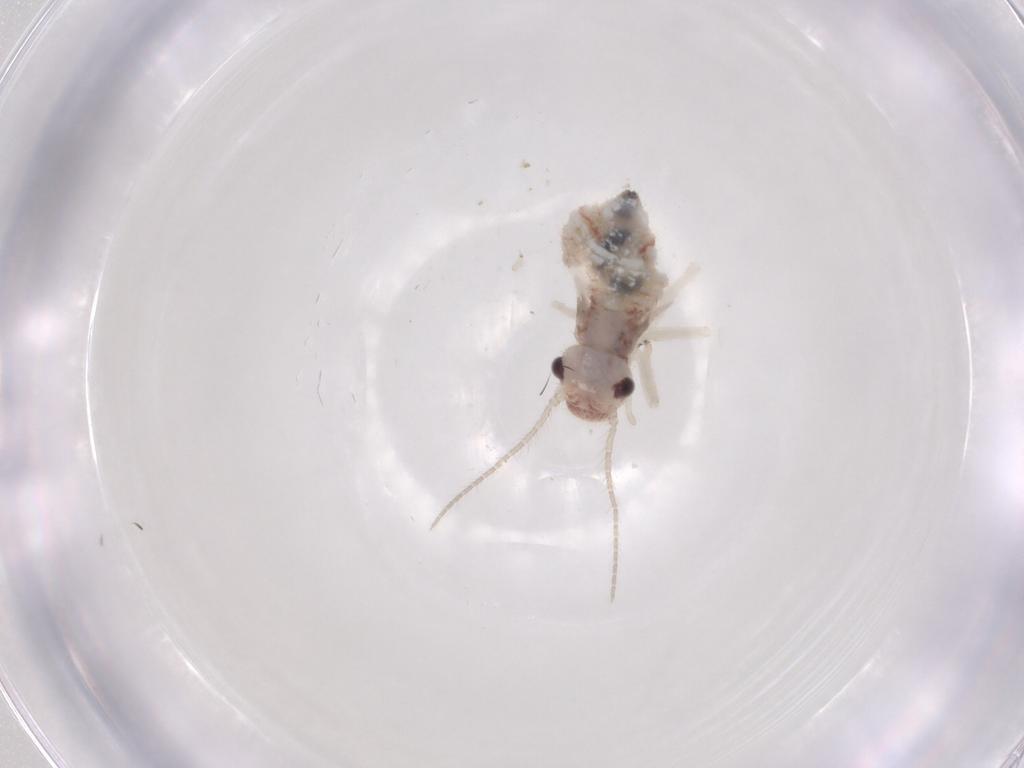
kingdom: Animalia
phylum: Arthropoda
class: Insecta
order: Psocodea
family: Amphipsocidae
